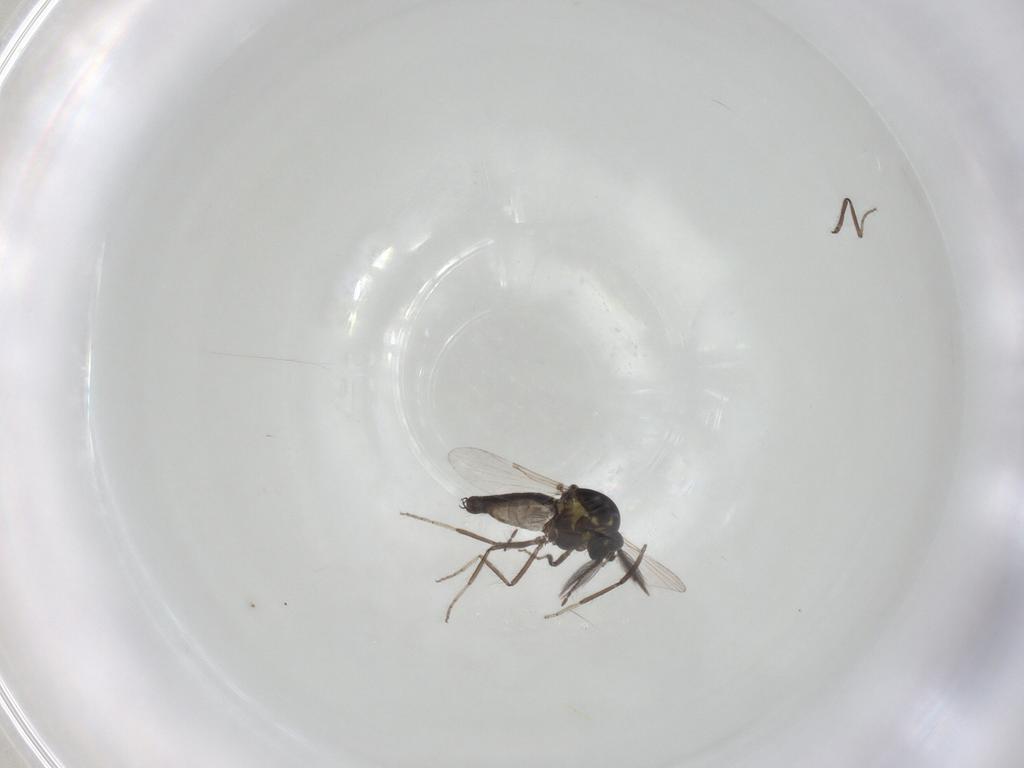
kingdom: Animalia
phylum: Arthropoda
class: Insecta
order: Diptera
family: Ceratopogonidae
